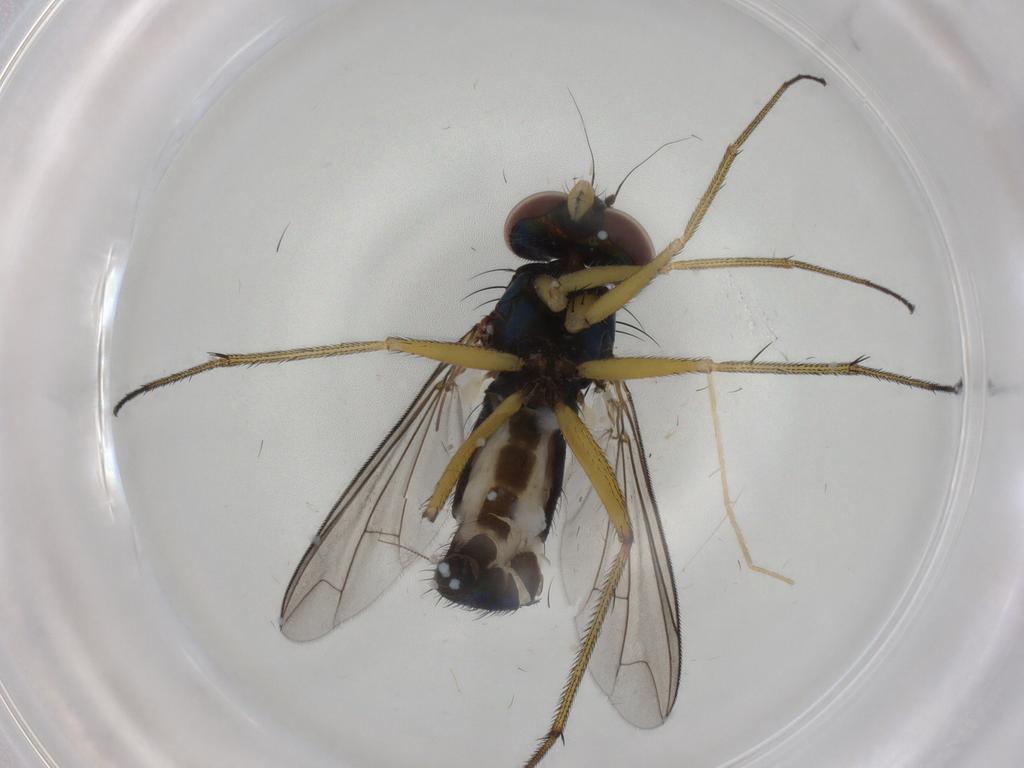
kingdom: Animalia
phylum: Arthropoda
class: Insecta
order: Diptera
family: Dolichopodidae
